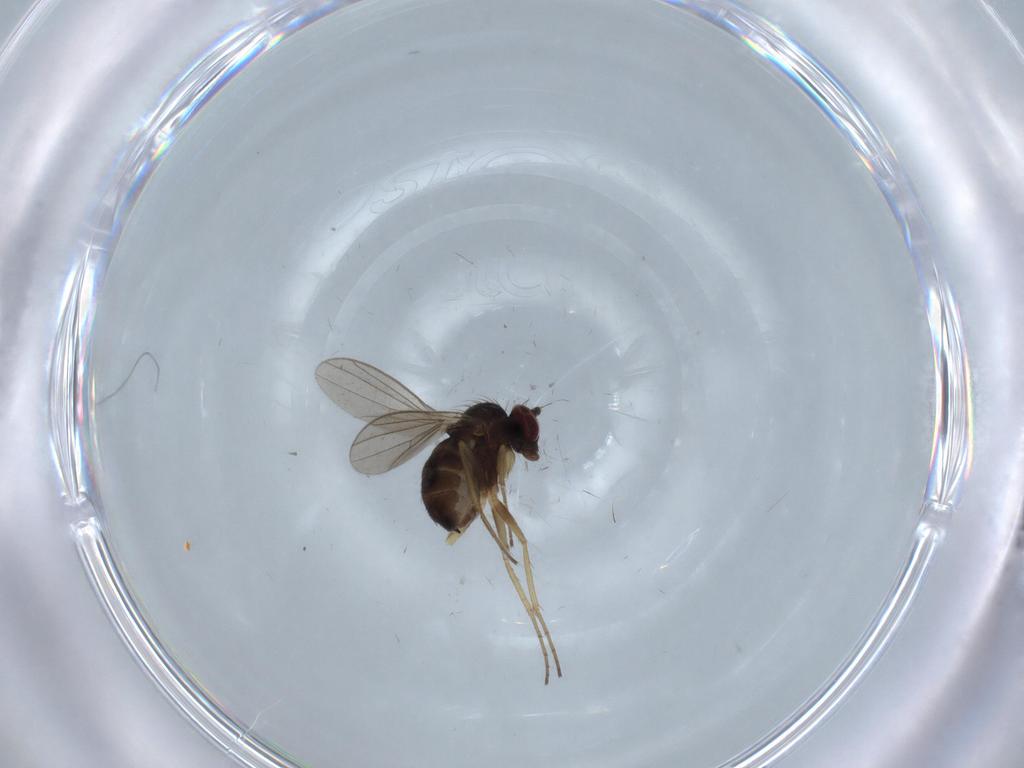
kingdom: Animalia
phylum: Arthropoda
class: Insecta
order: Diptera
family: Dolichopodidae
